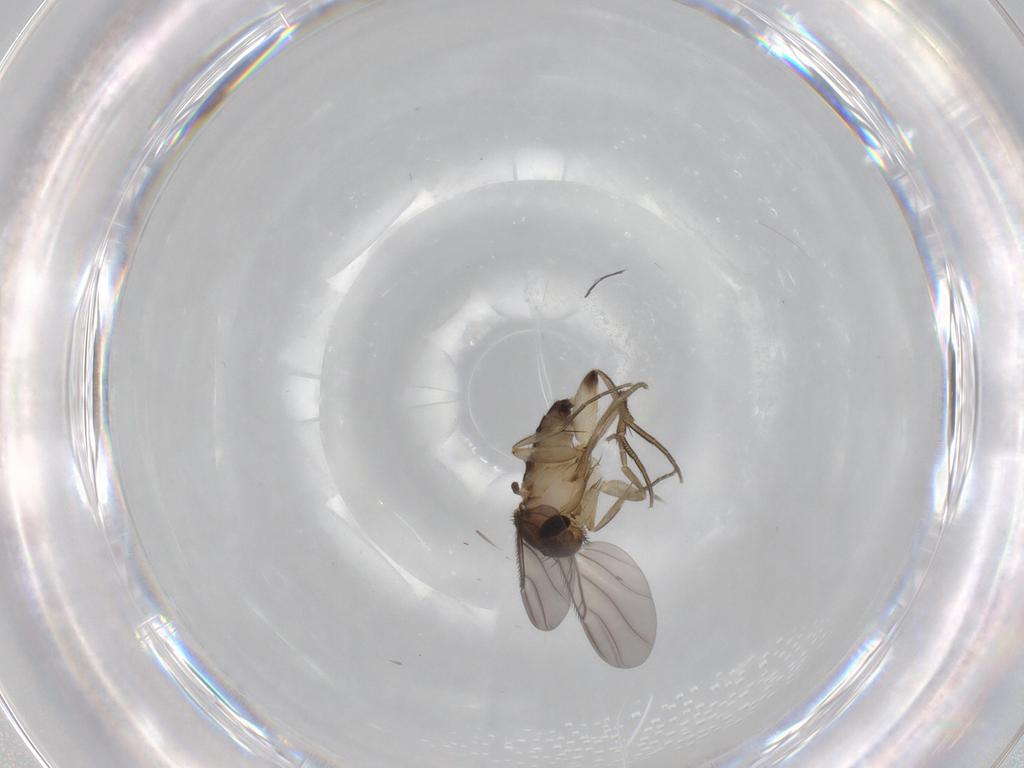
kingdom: Animalia
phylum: Arthropoda
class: Insecta
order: Diptera
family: Phoridae
